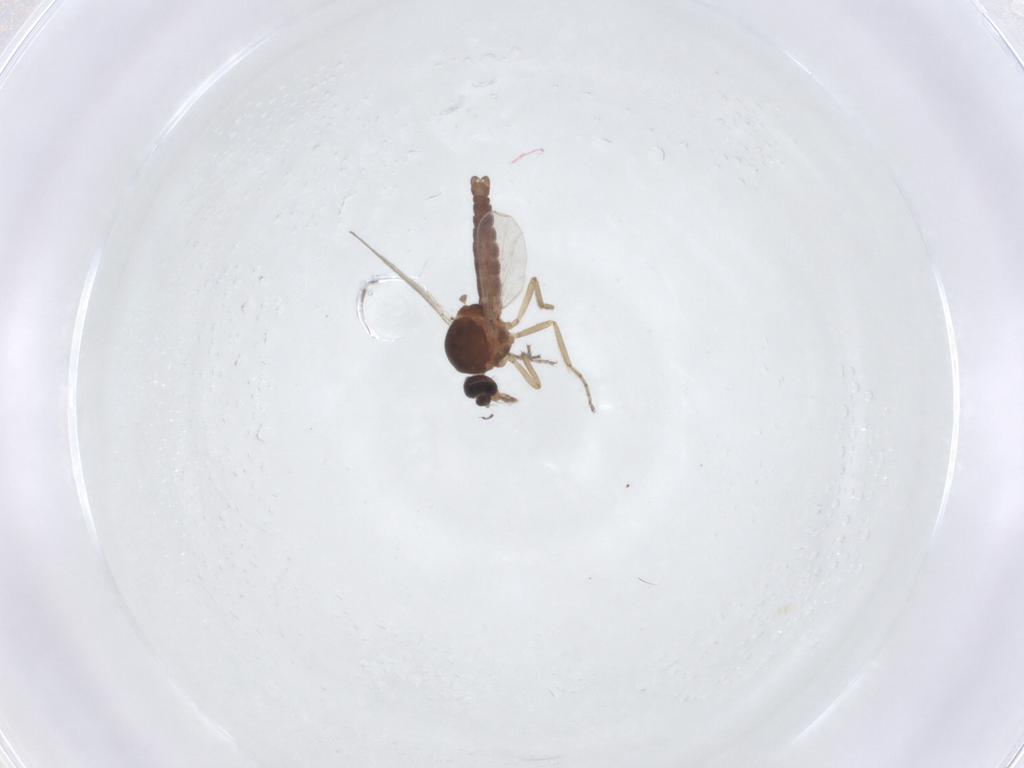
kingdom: Animalia
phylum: Arthropoda
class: Insecta
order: Diptera
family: Ceratopogonidae
